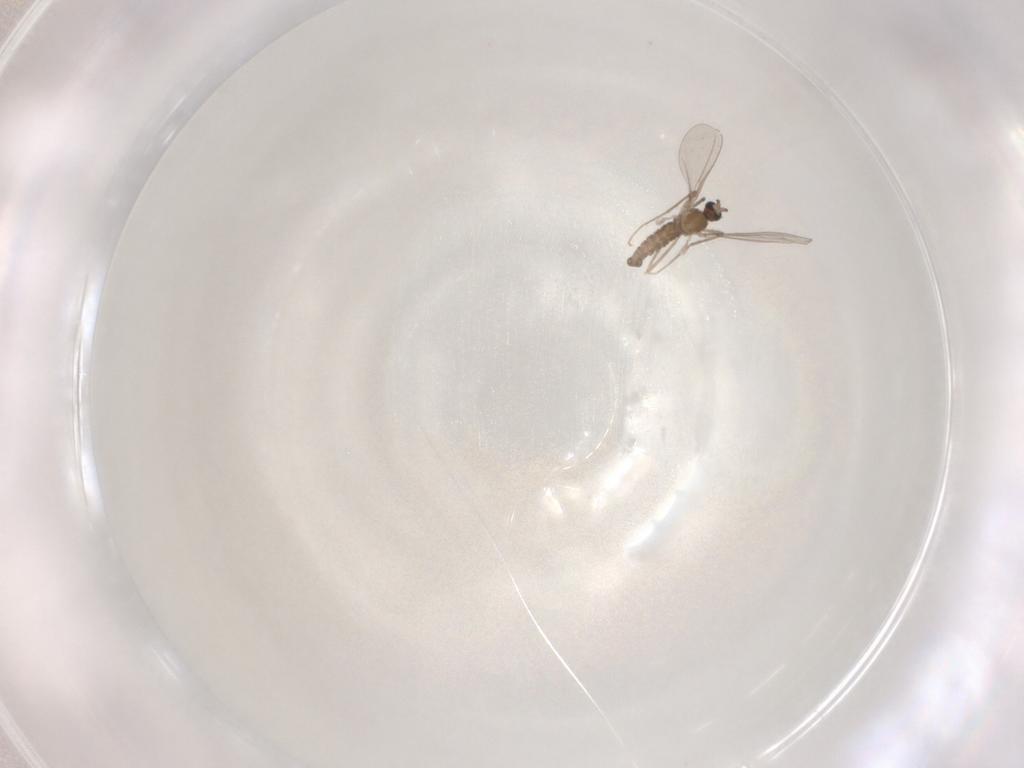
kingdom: Animalia
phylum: Arthropoda
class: Insecta
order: Diptera
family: Cecidomyiidae
